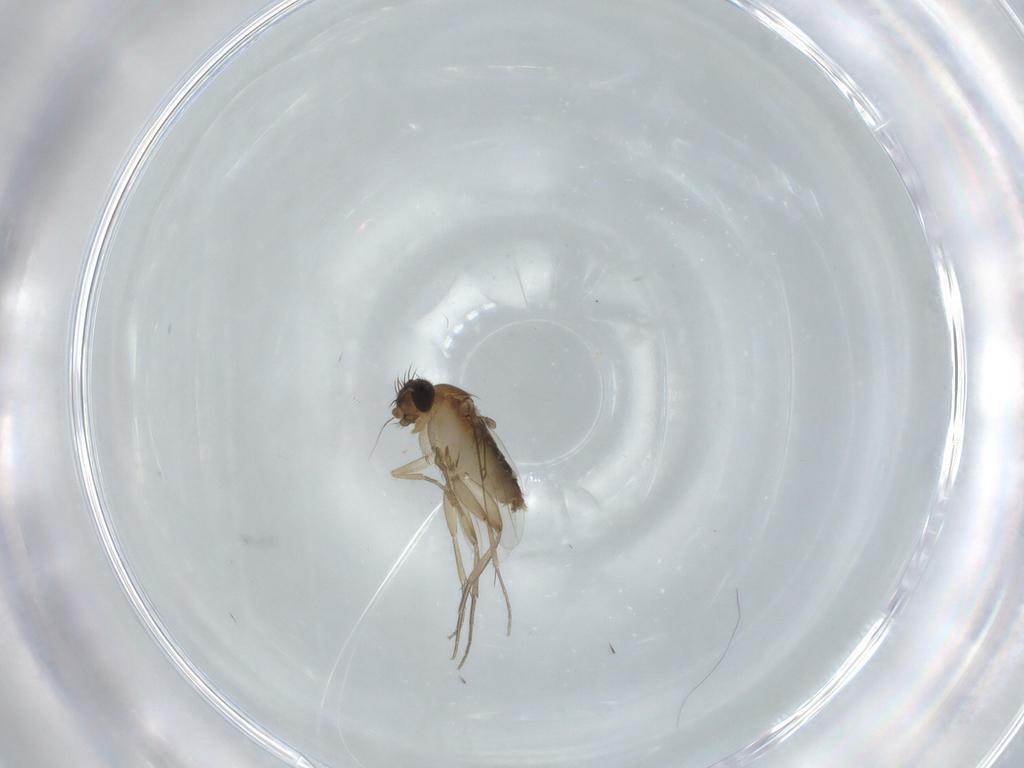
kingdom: Animalia
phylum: Arthropoda
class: Insecta
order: Diptera
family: Phoridae
